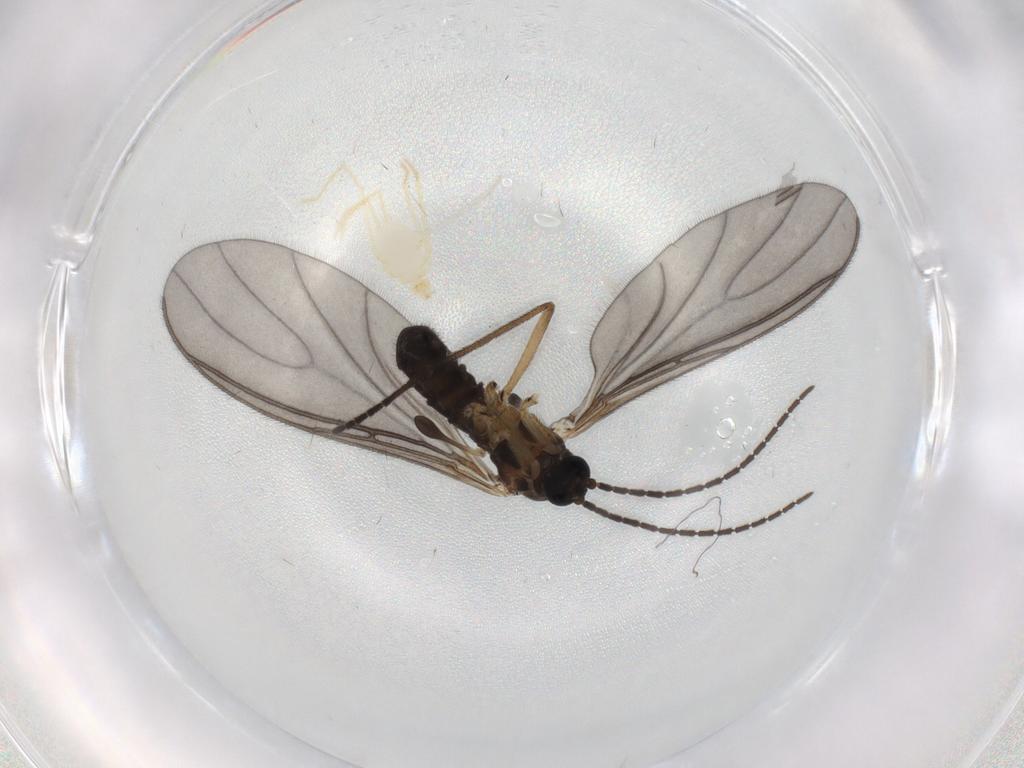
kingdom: Animalia
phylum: Arthropoda
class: Insecta
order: Diptera
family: Sciaridae
